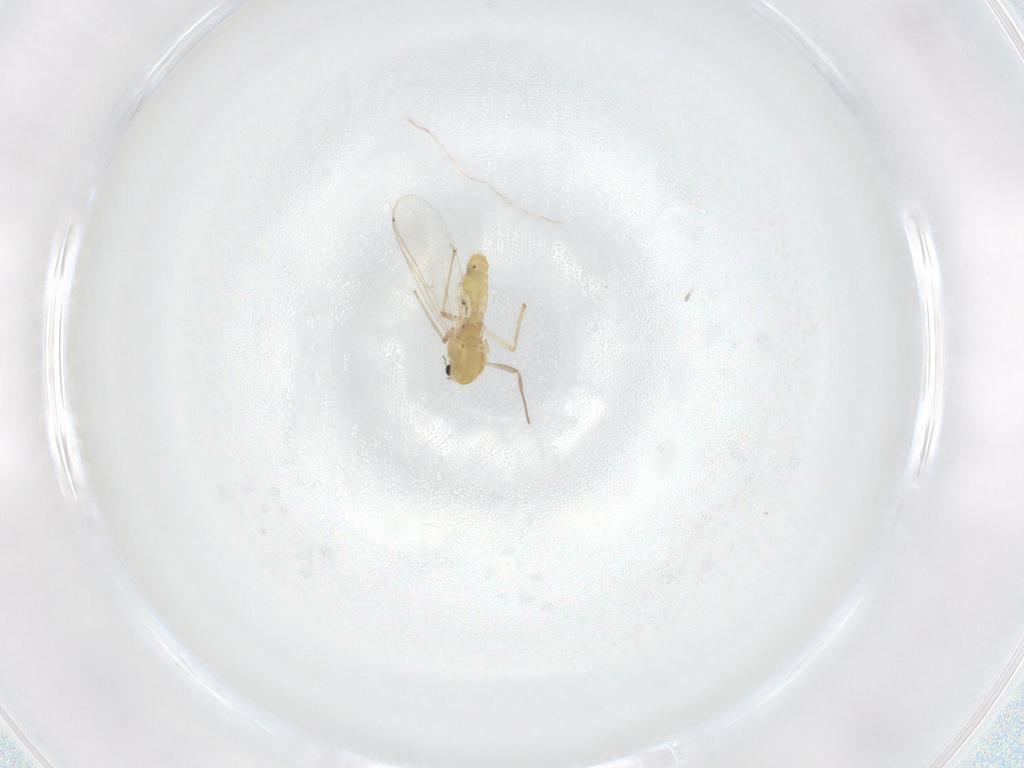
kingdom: Animalia
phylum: Arthropoda
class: Insecta
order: Diptera
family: Chironomidae
